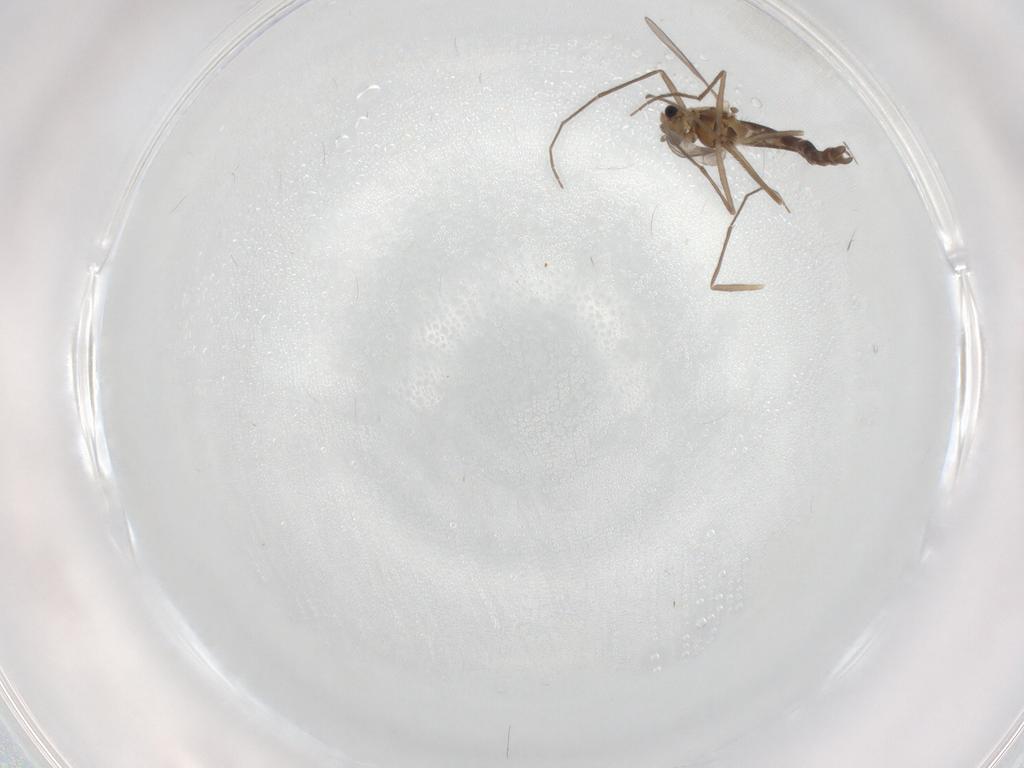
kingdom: Animalia
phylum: Arthropoda
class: Insecta
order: Diptera
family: Chironomidae
